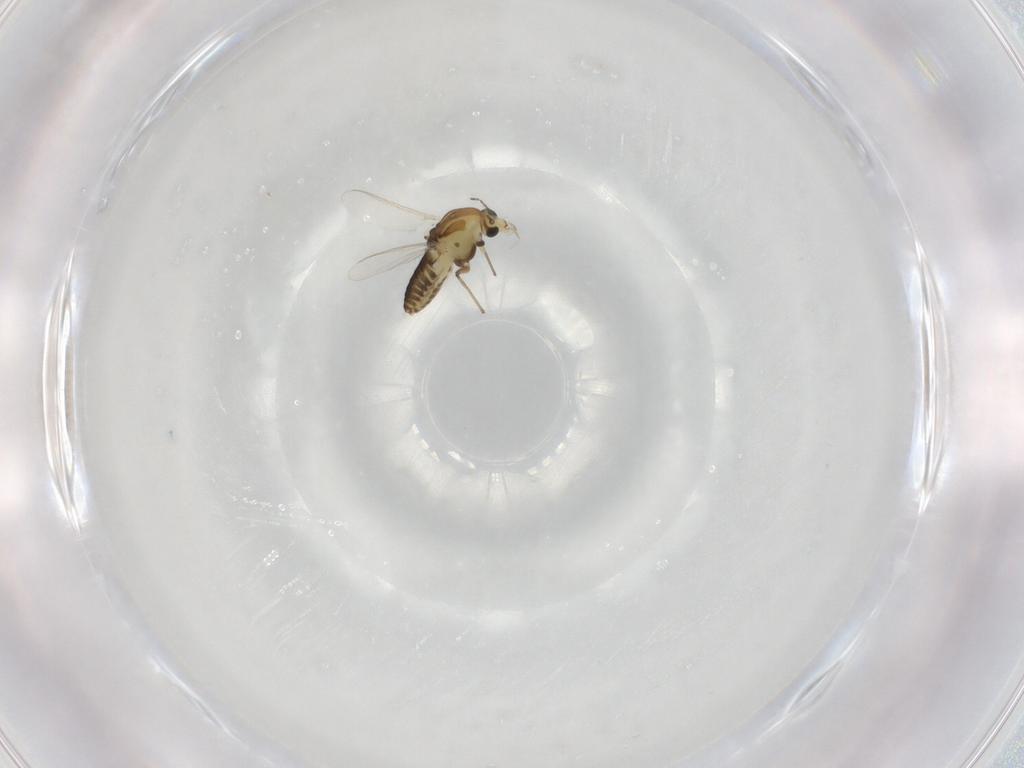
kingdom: Animalia
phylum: Arthropoda
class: Insecta
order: Diptera
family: Chironomidae
